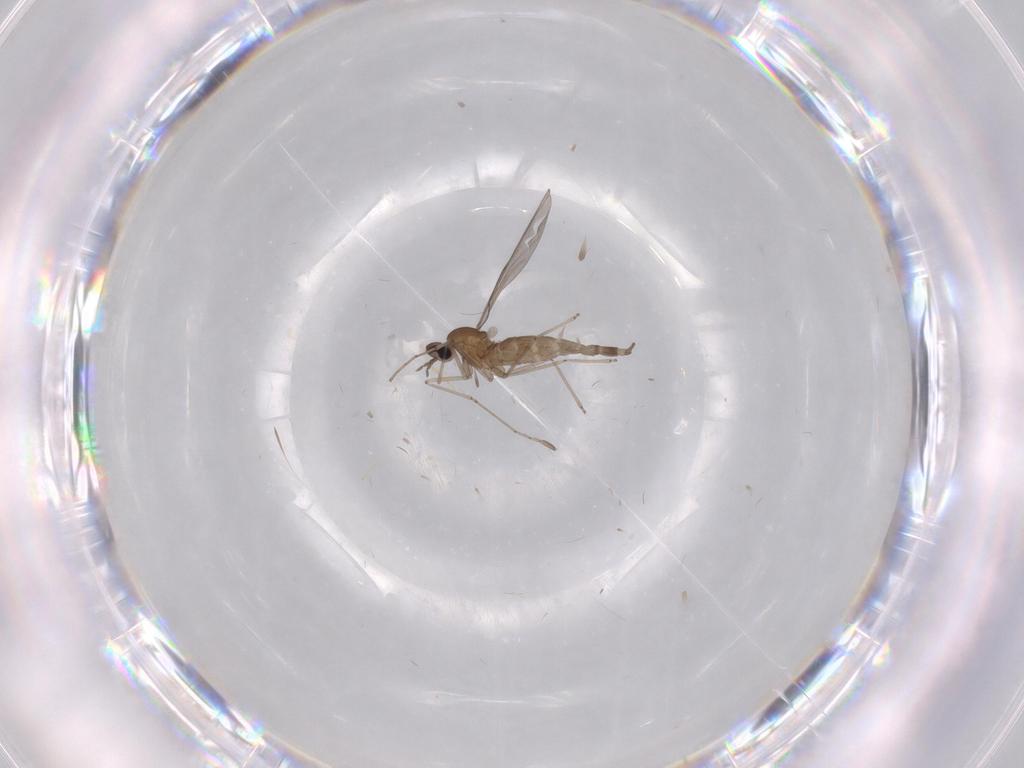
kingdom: Animalia
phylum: Arthropoda
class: Insecta
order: Diptera
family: Cecidomyiidae
